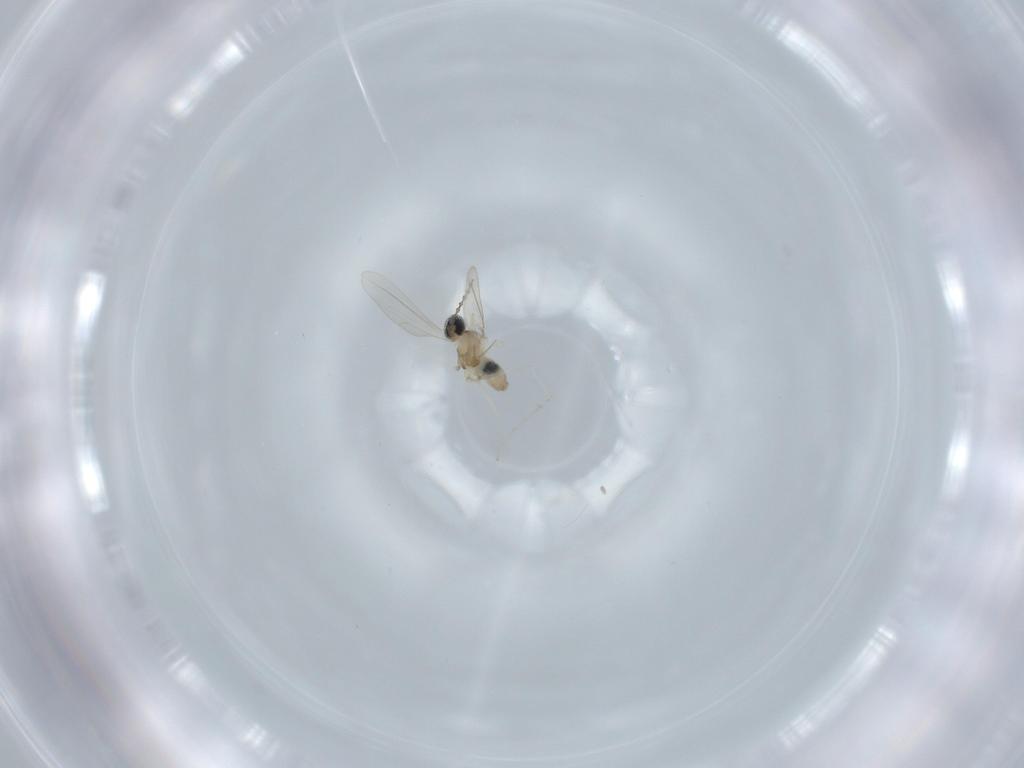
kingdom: Animalia
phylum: Arthropoda
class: Insecta
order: Diptera
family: Cecidomyiidae
